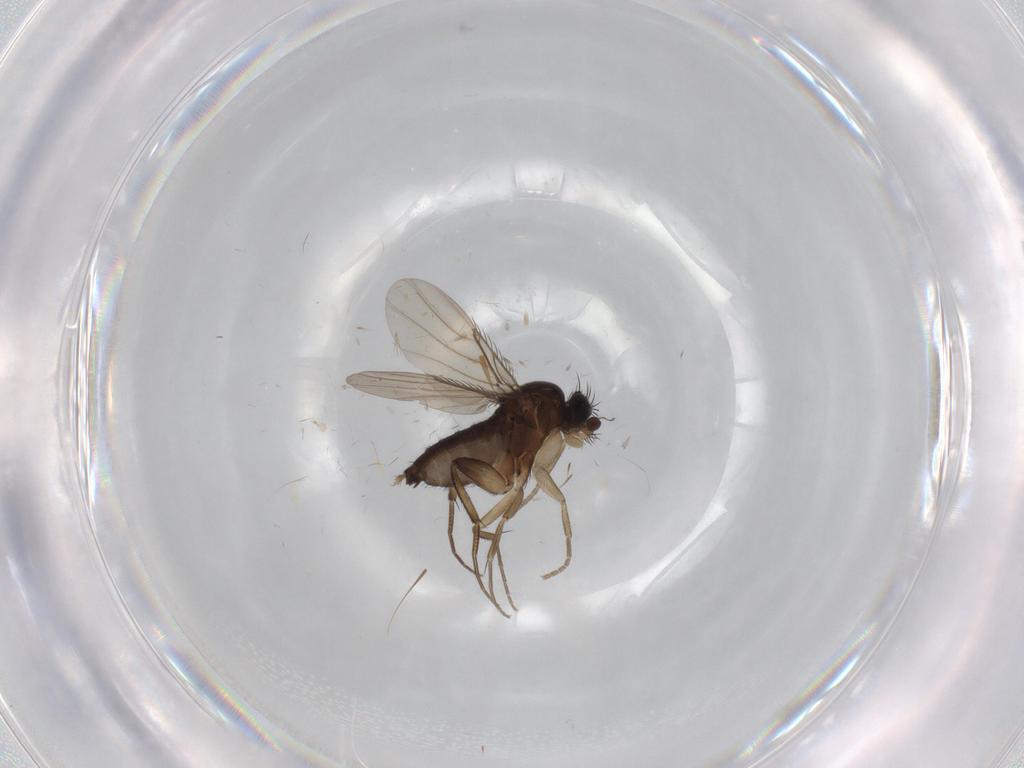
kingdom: Animalia
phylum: Arthropoda
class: Insecta
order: Diptera
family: Phoridae
